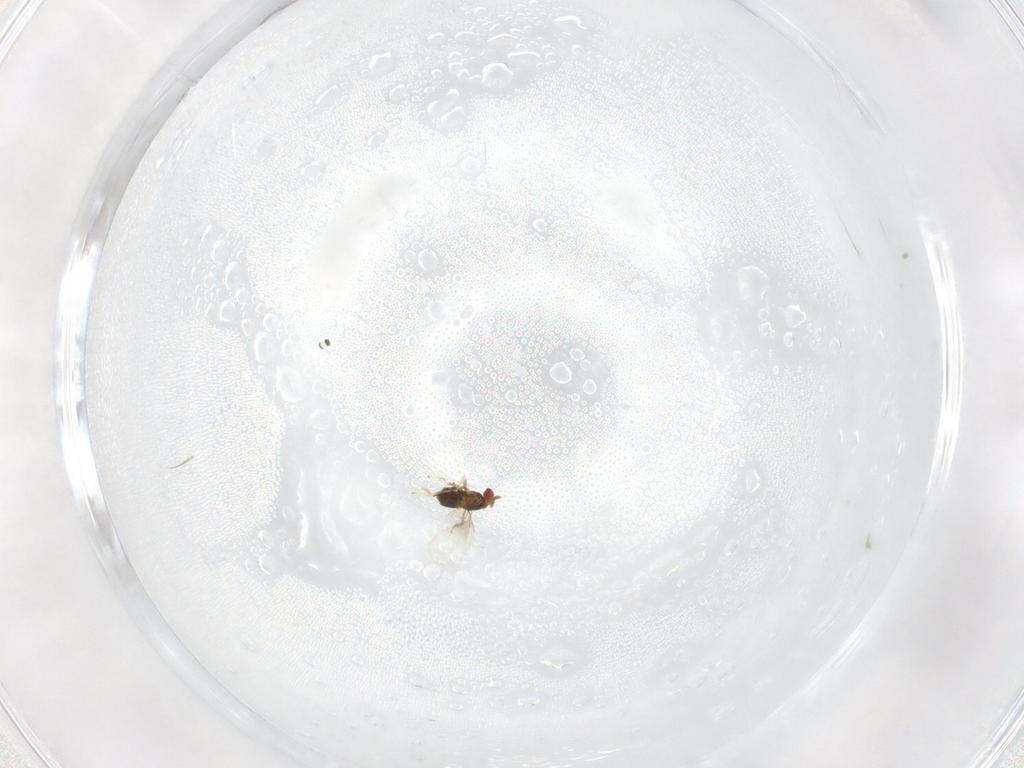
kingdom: Animalia
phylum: Arthropoda
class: Insecta
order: Hymenoptera
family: Trichogrammatidae
